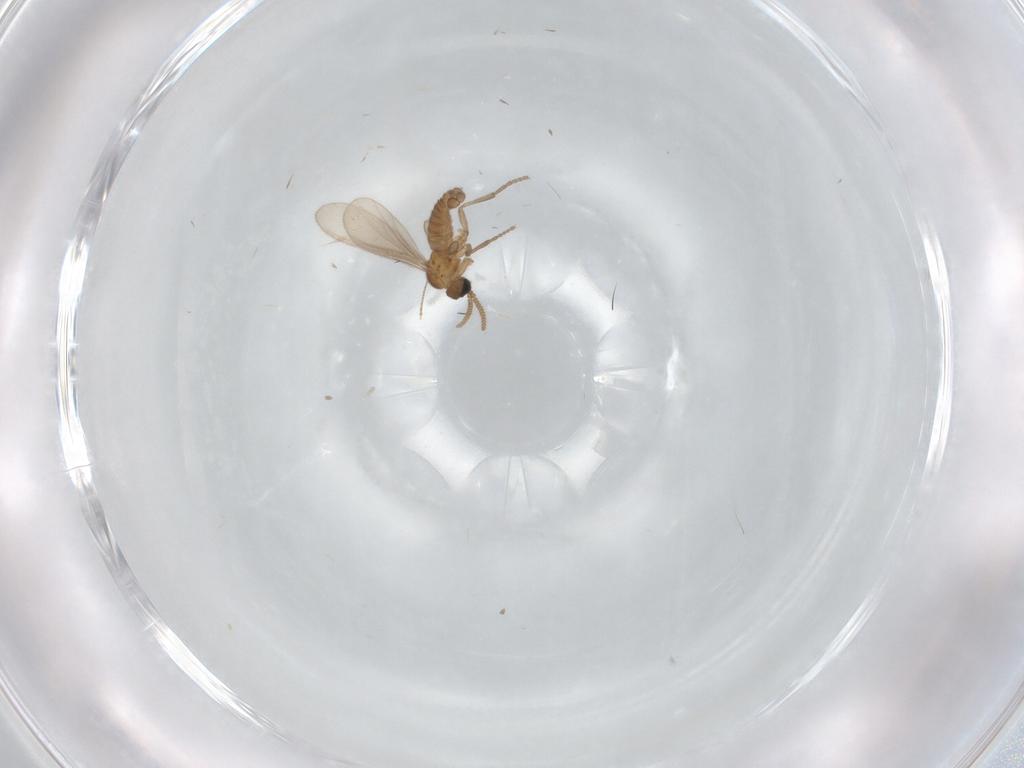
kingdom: Animalia
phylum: Arthropoda
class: Insecta
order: Diptera
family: Sciaridae
